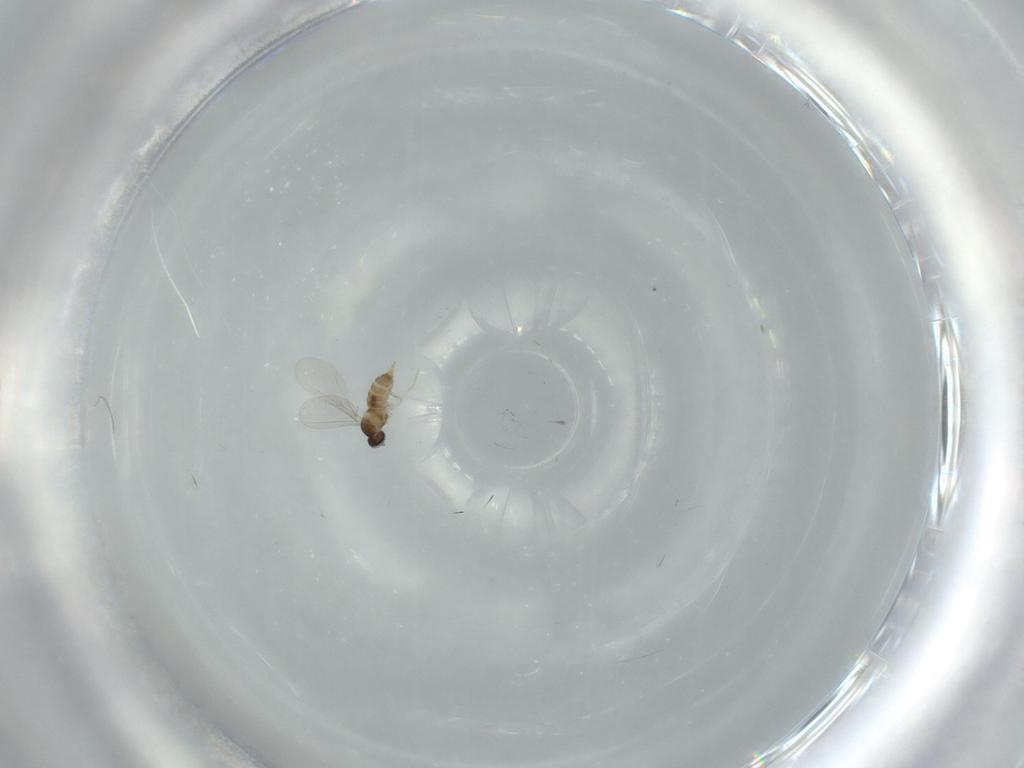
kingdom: Animalia
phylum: Arthropoda
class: Insecta
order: Diptera
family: Cecidomyiidae
